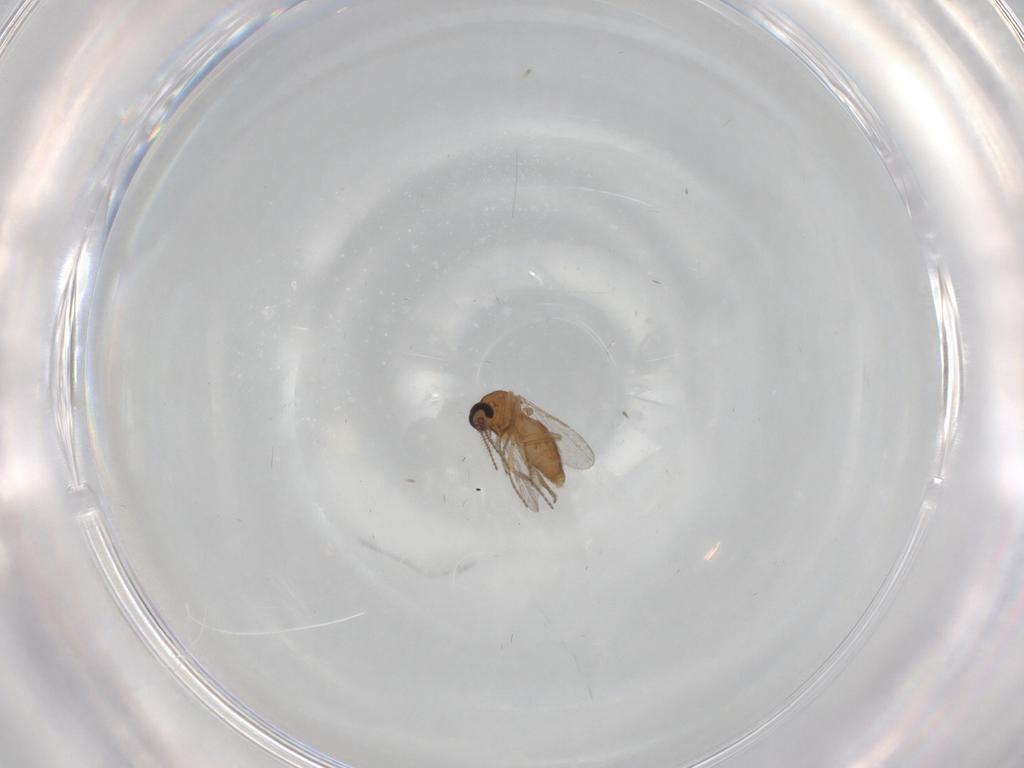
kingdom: Animalia
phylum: Arthropoda
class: Insecta
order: Diptera
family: Ceratopogonidae
